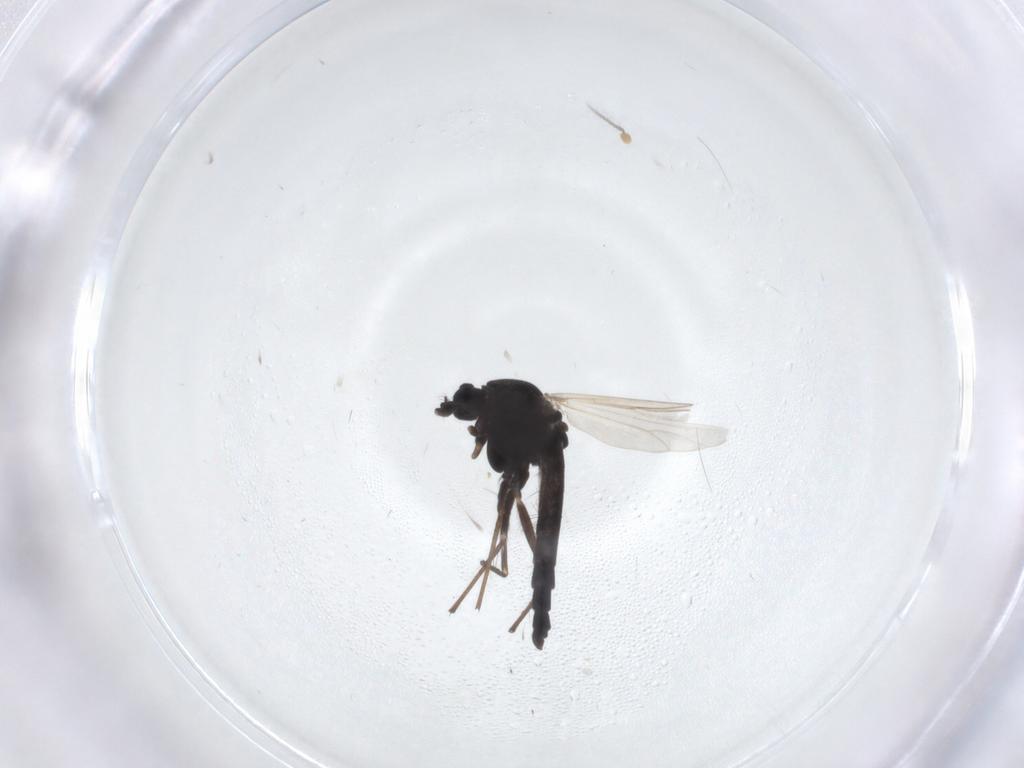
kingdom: Animalia
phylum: Arthropoda
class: Insecta
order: Diptera
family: Chironomidae
